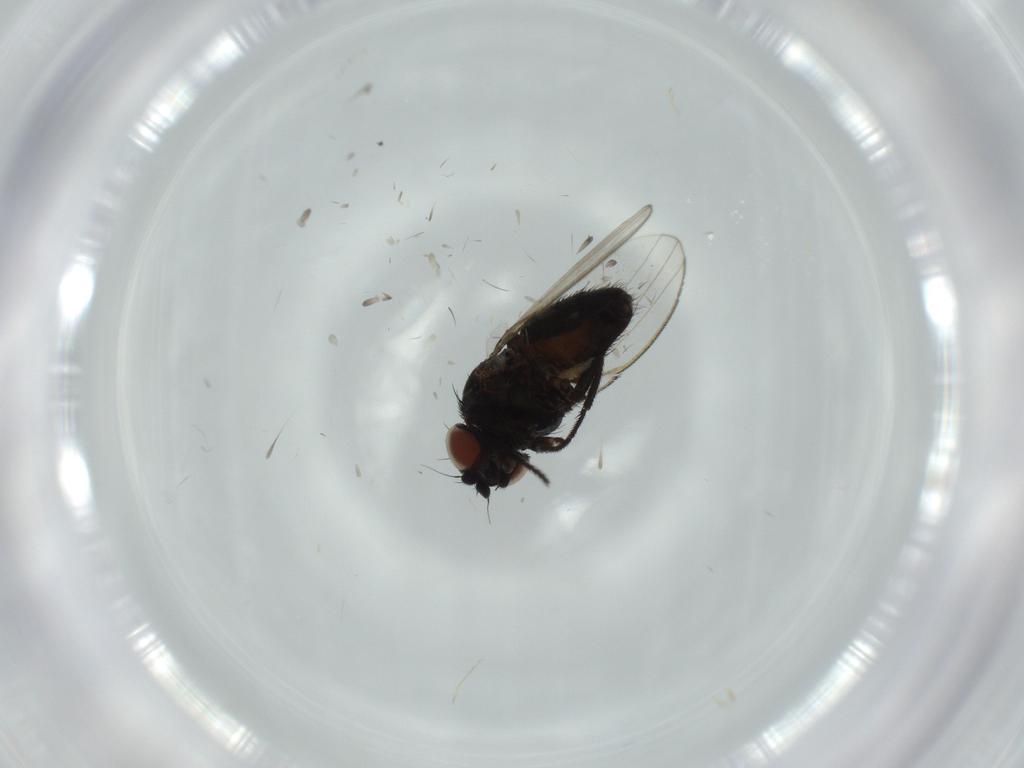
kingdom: Animalia
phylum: Arthropoda
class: Insecta
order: Diptera
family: Milichiidae
